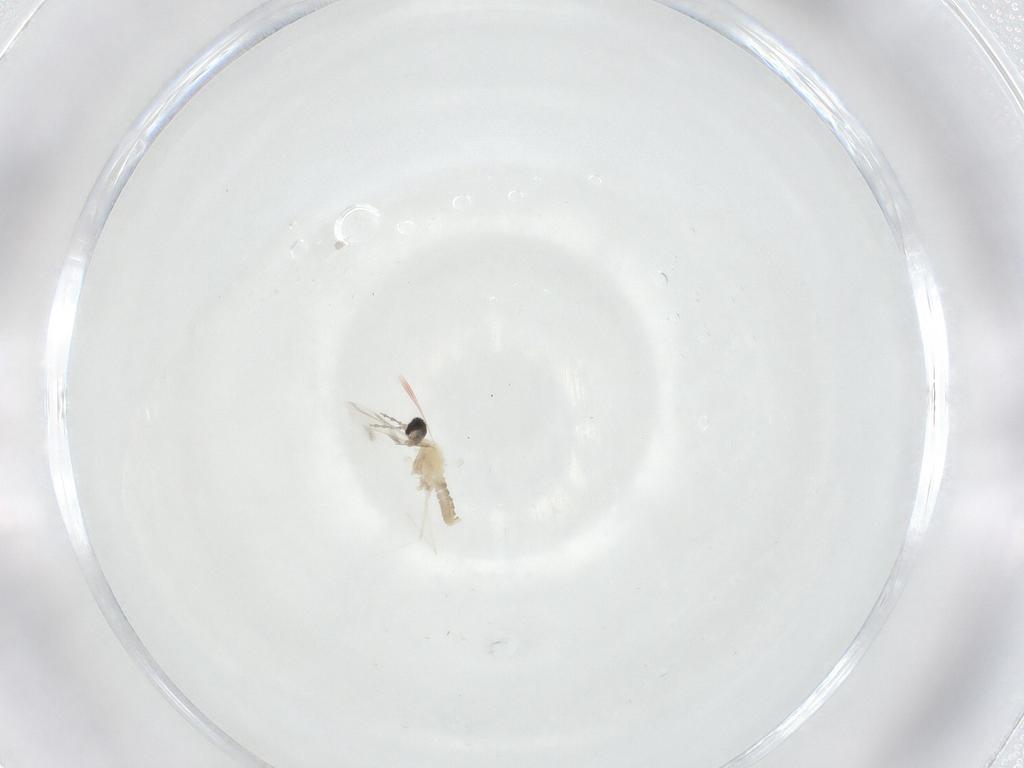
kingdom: Animalia
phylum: Arthropoda
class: Insecta
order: Diptera
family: Cecidomyiidae
